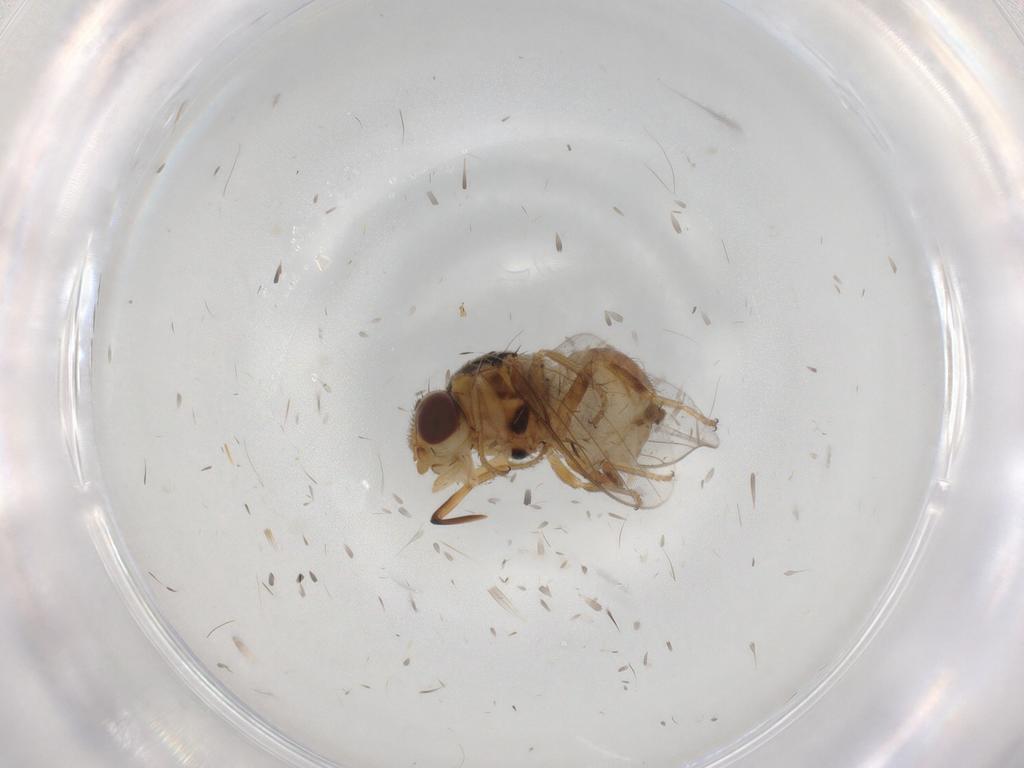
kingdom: Animalia
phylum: Arthropoda
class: Insecta
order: Diptera
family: Chloropidae
